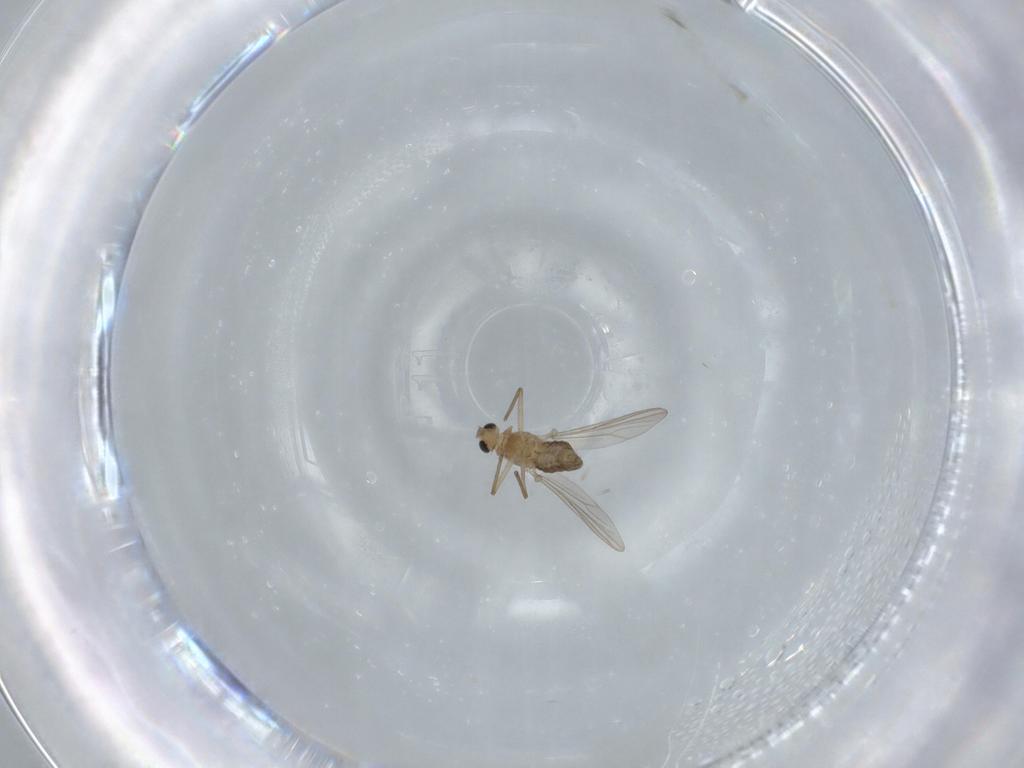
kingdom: Animalia
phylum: Arthropoda
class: Insecta
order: Diptera
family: Chironomidae
